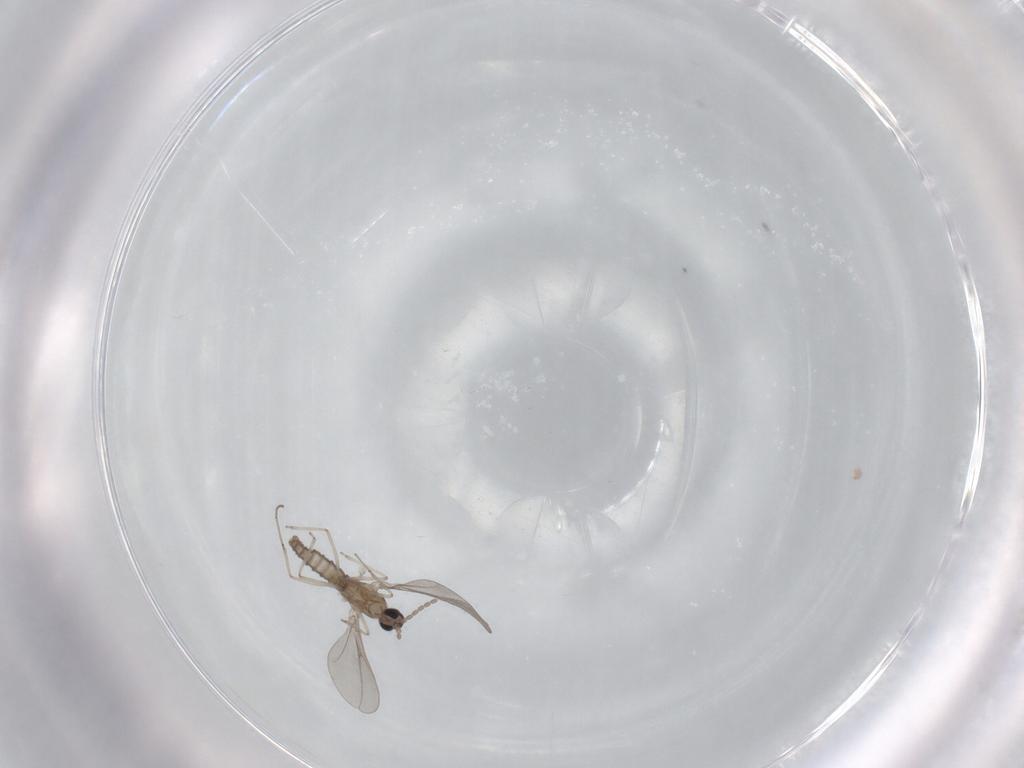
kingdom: Animalia
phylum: Arthropoda
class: Insecta
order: Diptera
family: Cecidomyiidae
